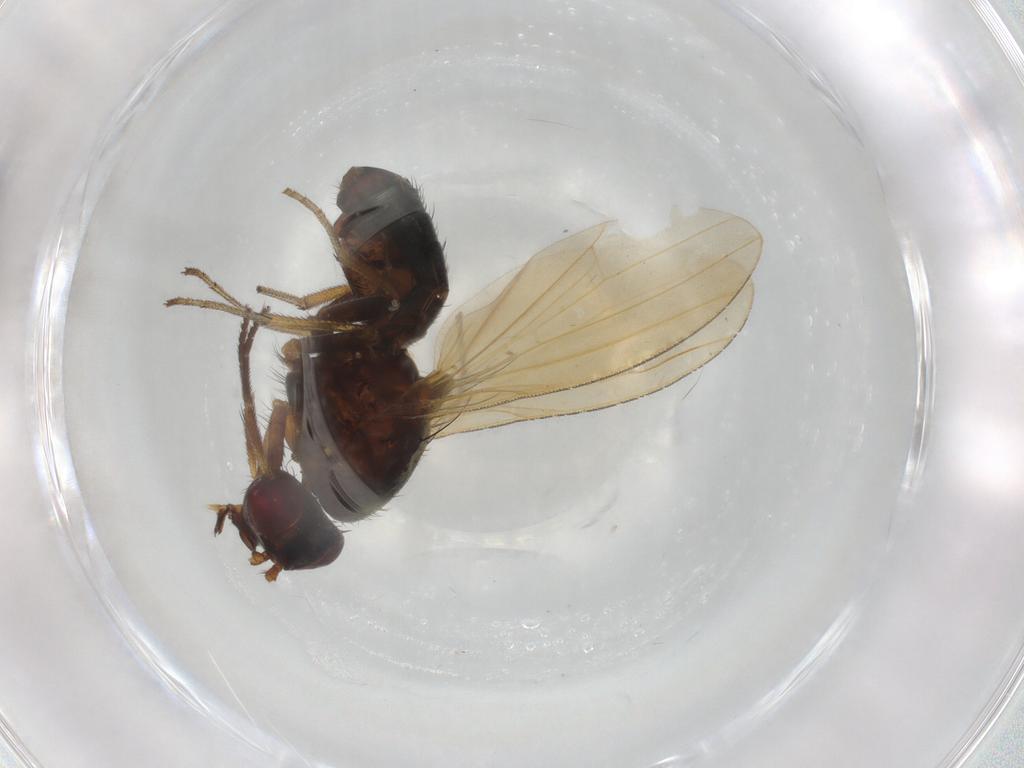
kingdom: Animalia
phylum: Arthropoda
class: Insecta
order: Diptera
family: Lauxaniidae
